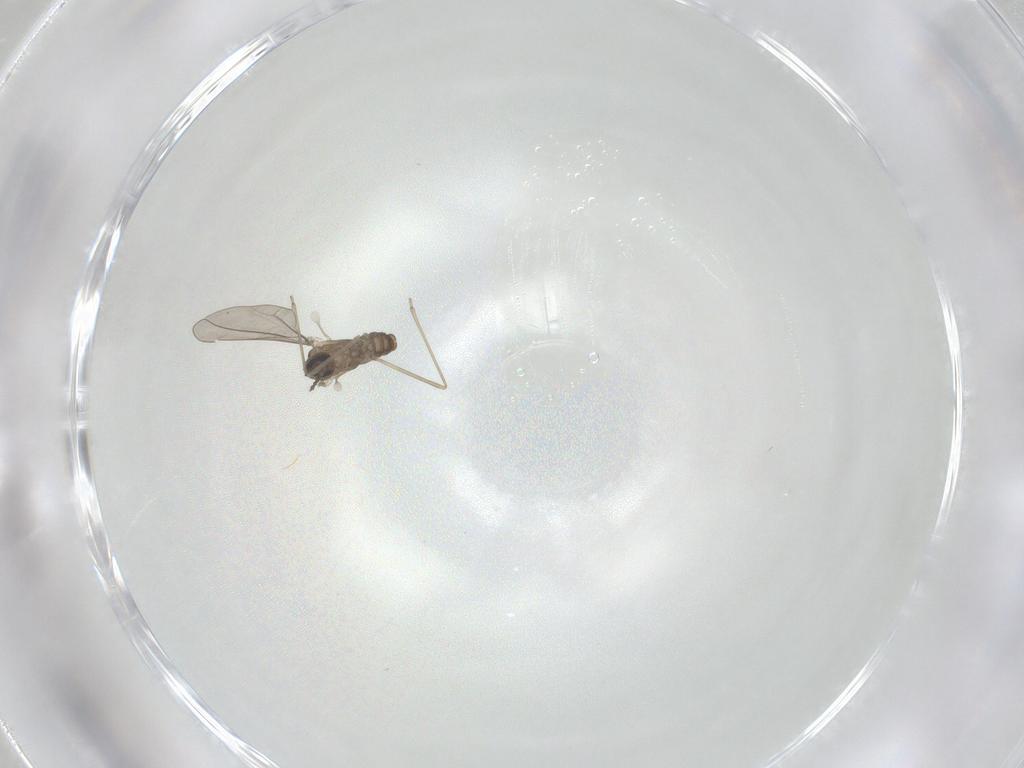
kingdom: Animalia
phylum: Arthropoda
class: Insecta
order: Diptera
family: Tabanidae
